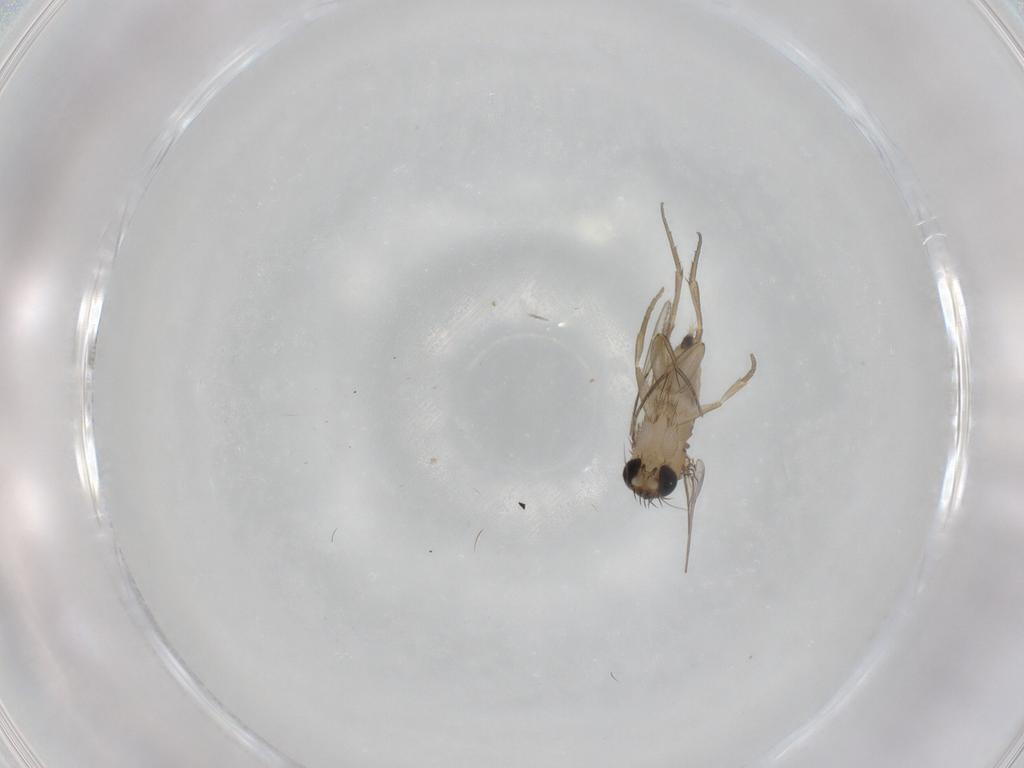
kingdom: Animalia
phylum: Arthropoda
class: Insecta
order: Diptera
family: Phoridae
